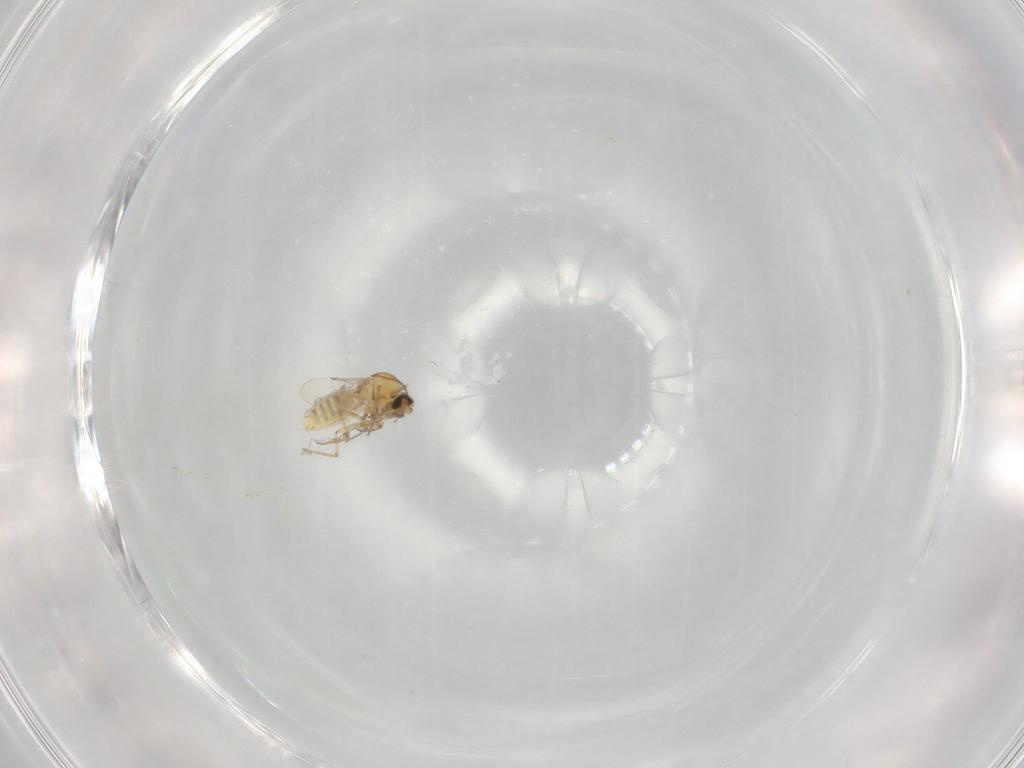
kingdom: Animalia
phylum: Arthropoda
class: Insecta
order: Diptera
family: Cecidomyiidae
